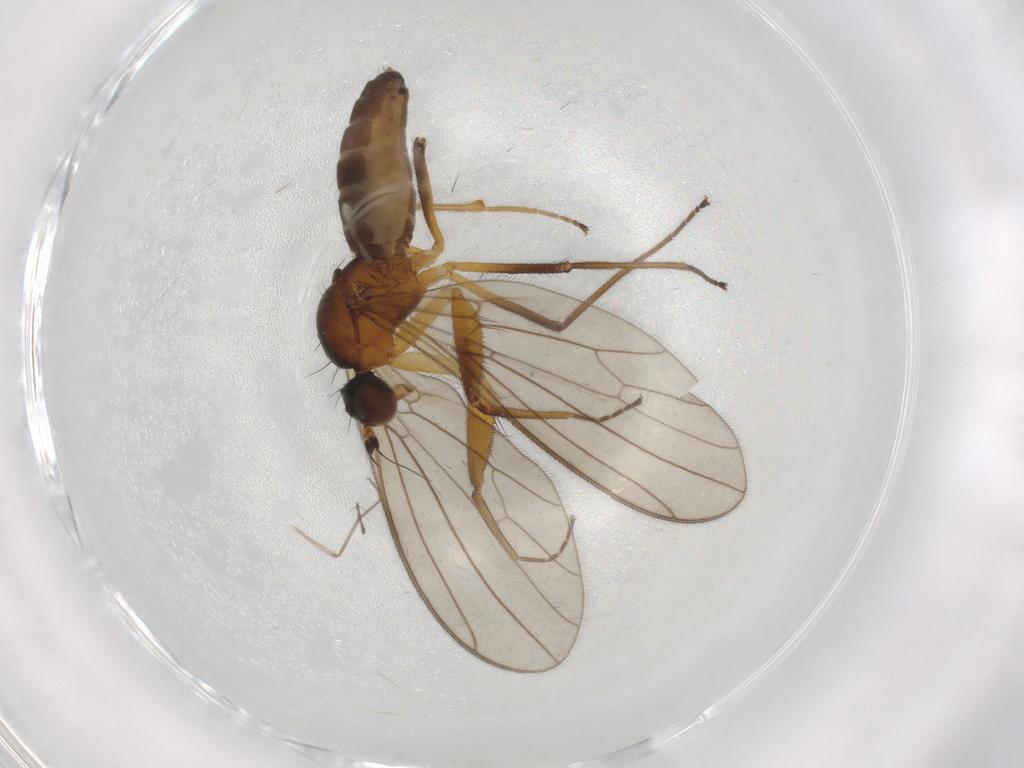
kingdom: Animalia
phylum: Arthropoda
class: Insecta
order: Diptera
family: Empididae
